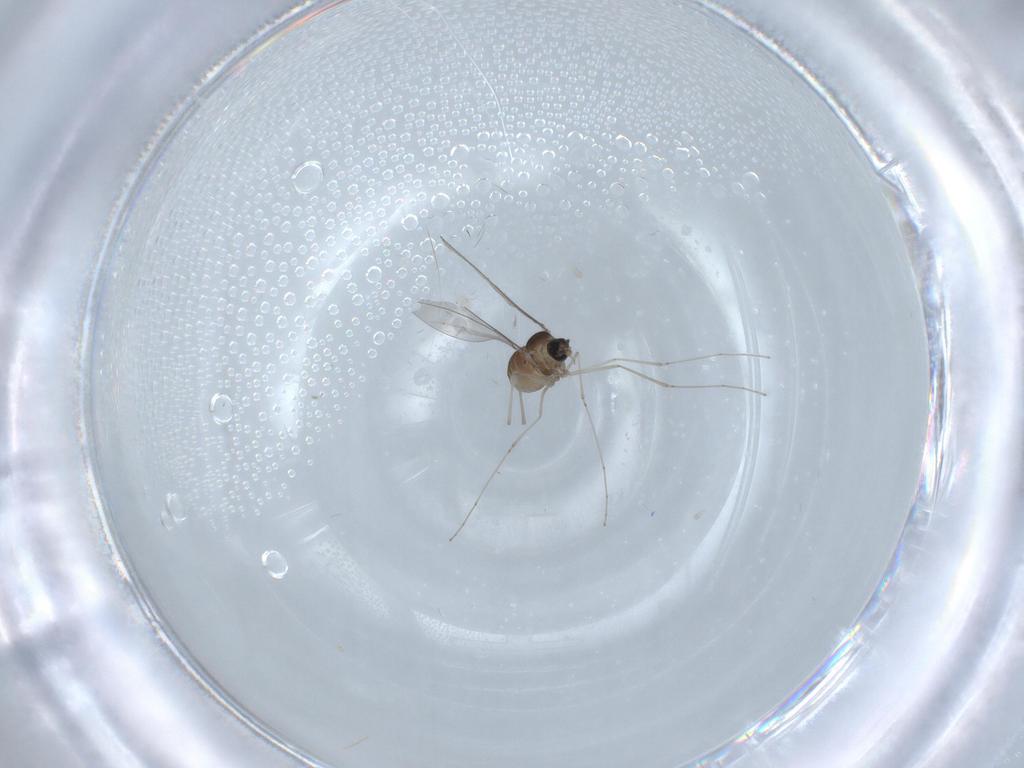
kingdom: Animalia
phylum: Arthropoda
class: Insecta
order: Diptera
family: Cecidomyiidae
